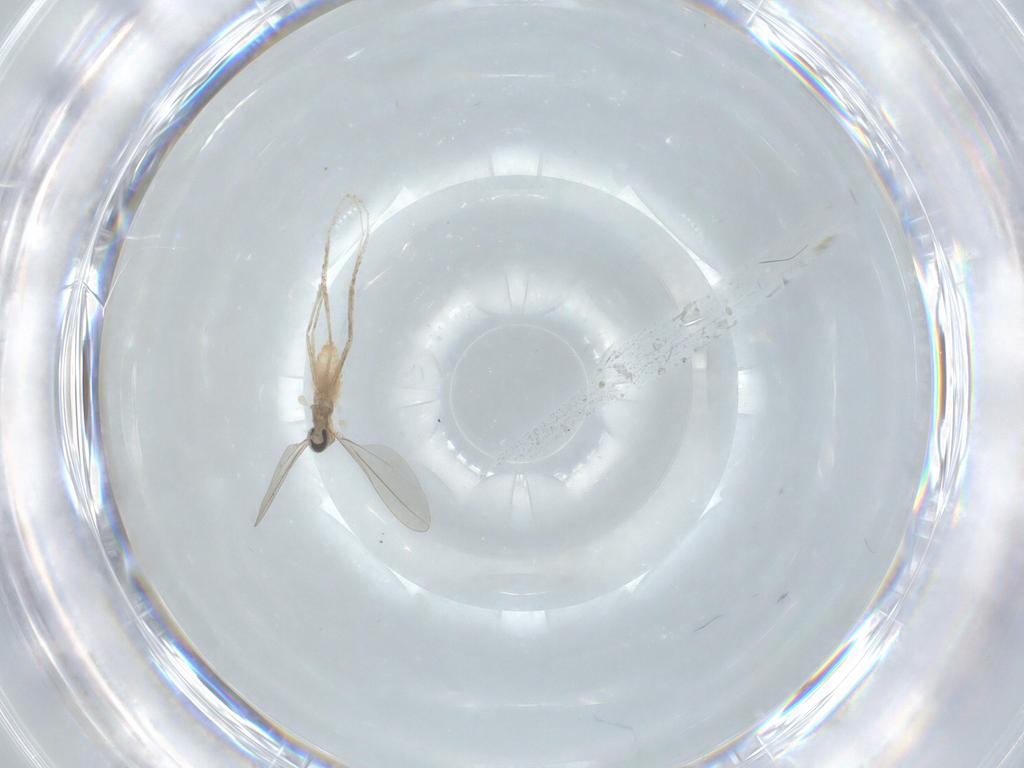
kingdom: Animalia
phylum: Arthropoda
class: Insecta
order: Diptera
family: Cecidomyiidae
